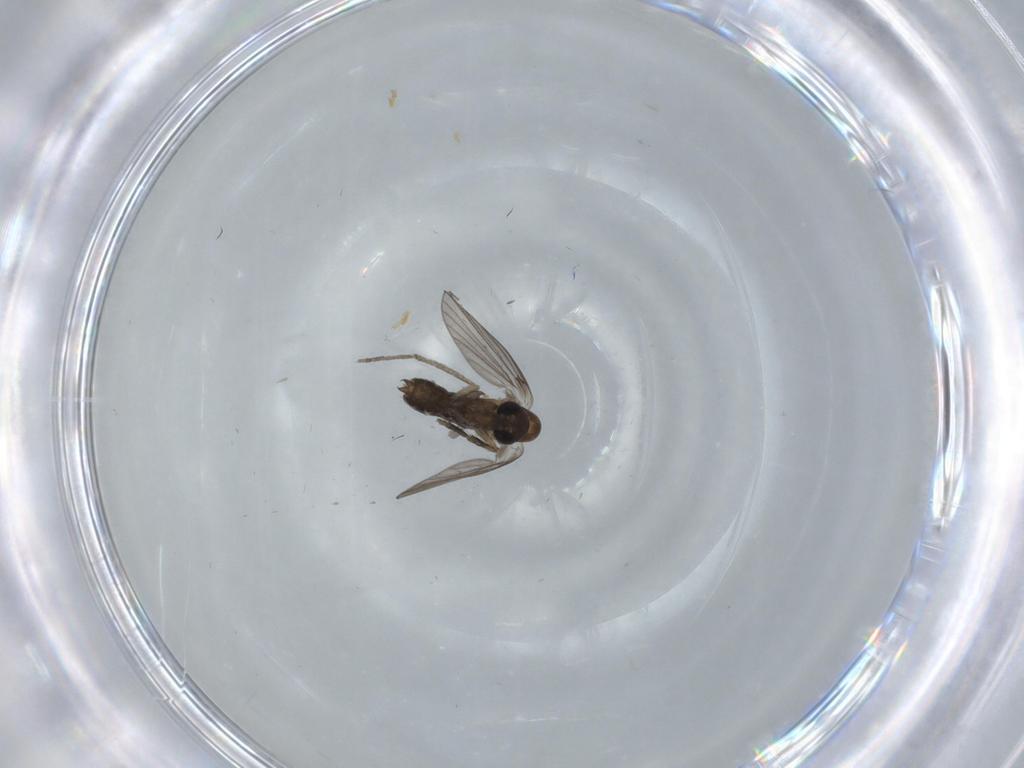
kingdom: Animalia
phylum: Arthropoda
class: Insecta
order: Diptera
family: Psychodidae
